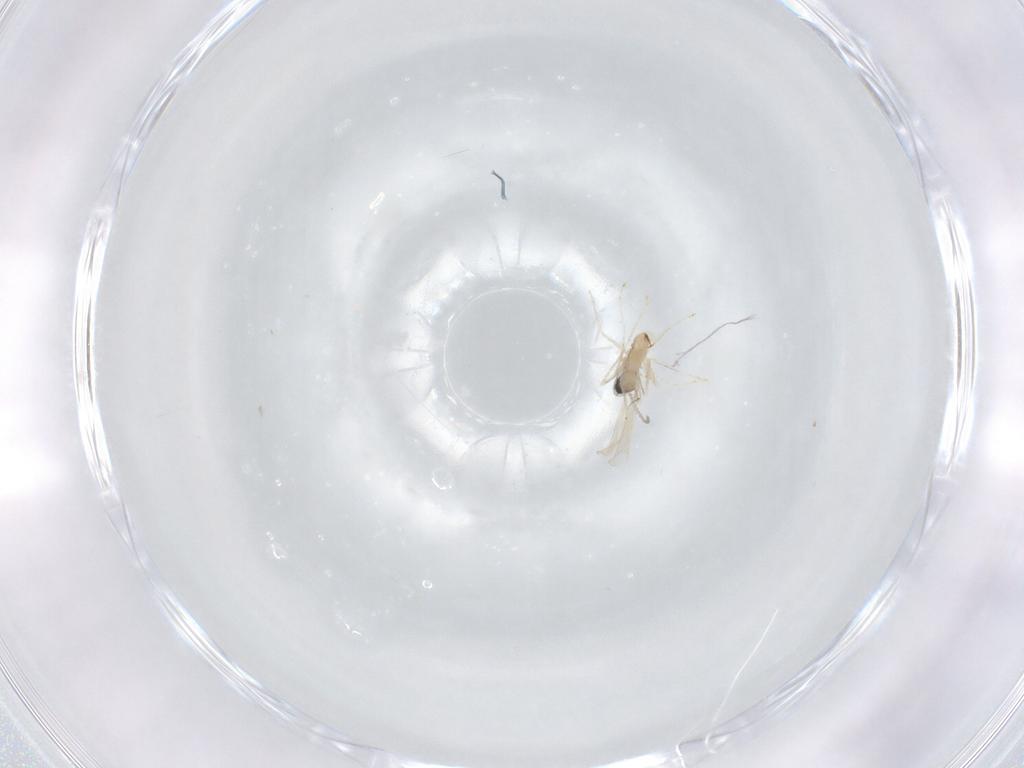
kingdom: Animalia
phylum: Arthropoda
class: Insecta
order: Diptera
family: Cecidomyiidae
